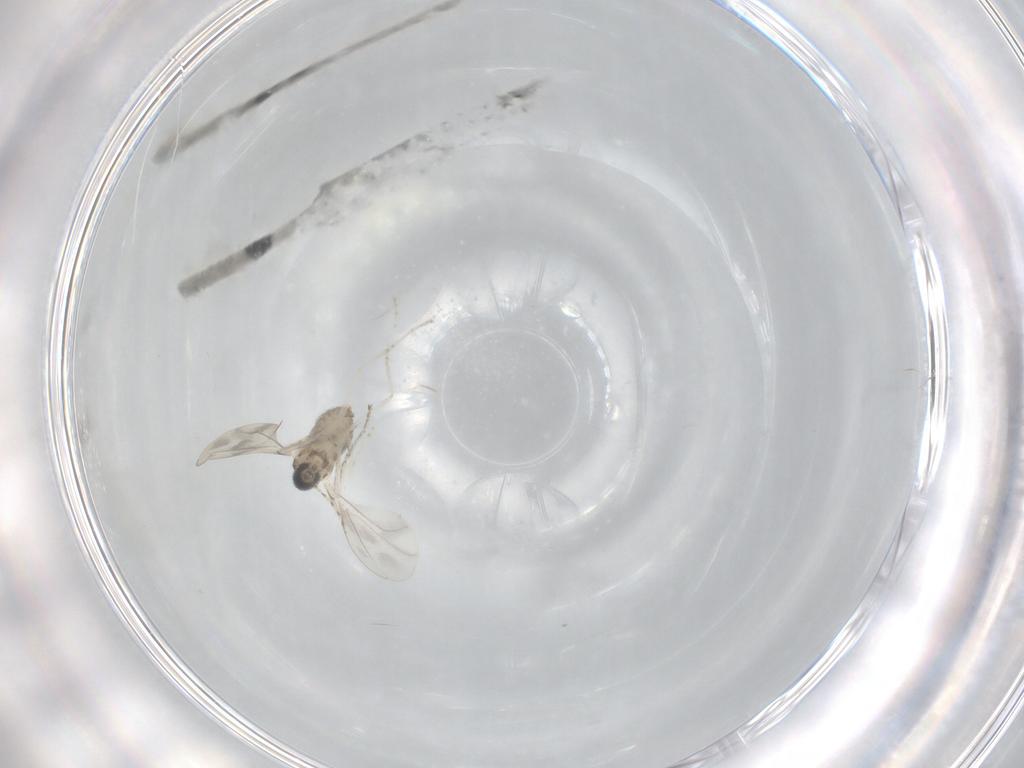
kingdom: Animalia
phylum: Arthropoda
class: Insecta
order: Diptera
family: Cecidomyiidae
